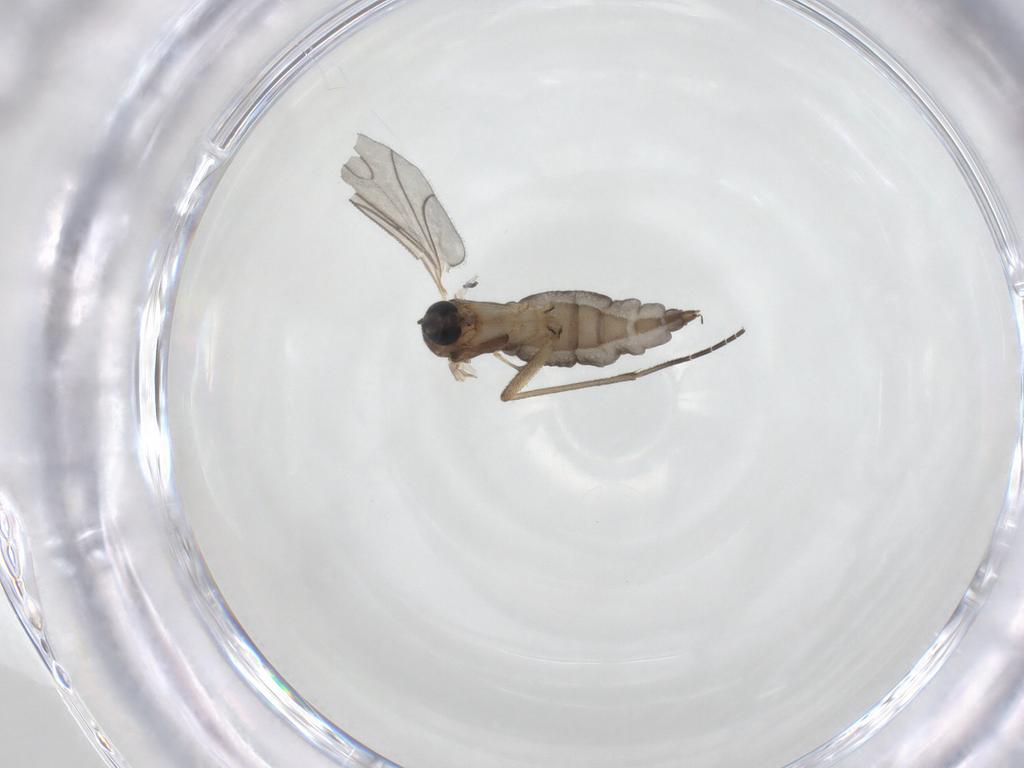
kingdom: Animalia
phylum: Arthropoda
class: Insecta
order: Diptera
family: Sciaridae
